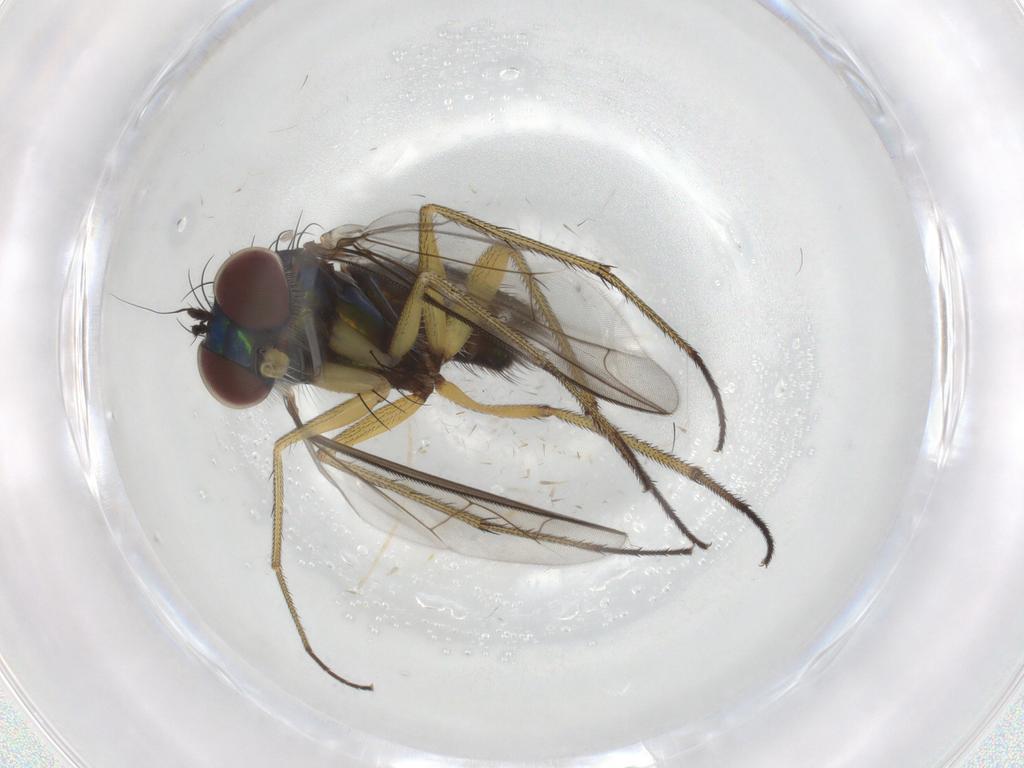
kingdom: Animalia
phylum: Arthropoda
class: Insecta
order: Diptera
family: Dolichopodidae
